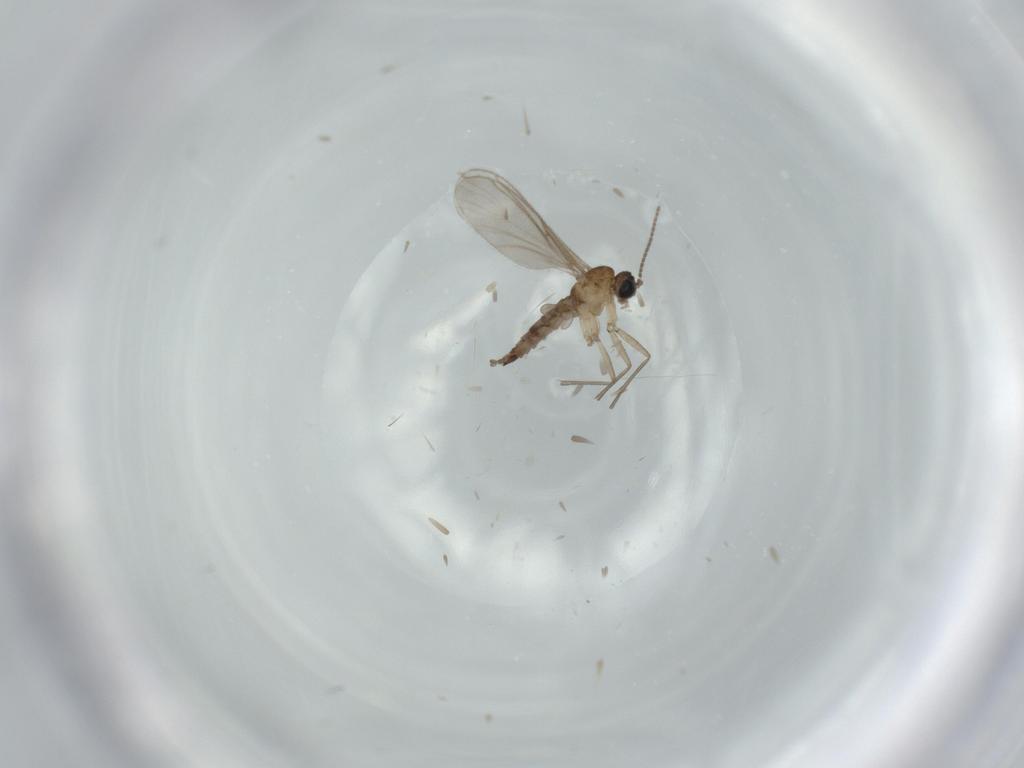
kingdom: Animalia
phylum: Arthropoda
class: Insecta
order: Diptera
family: Sciaridae
